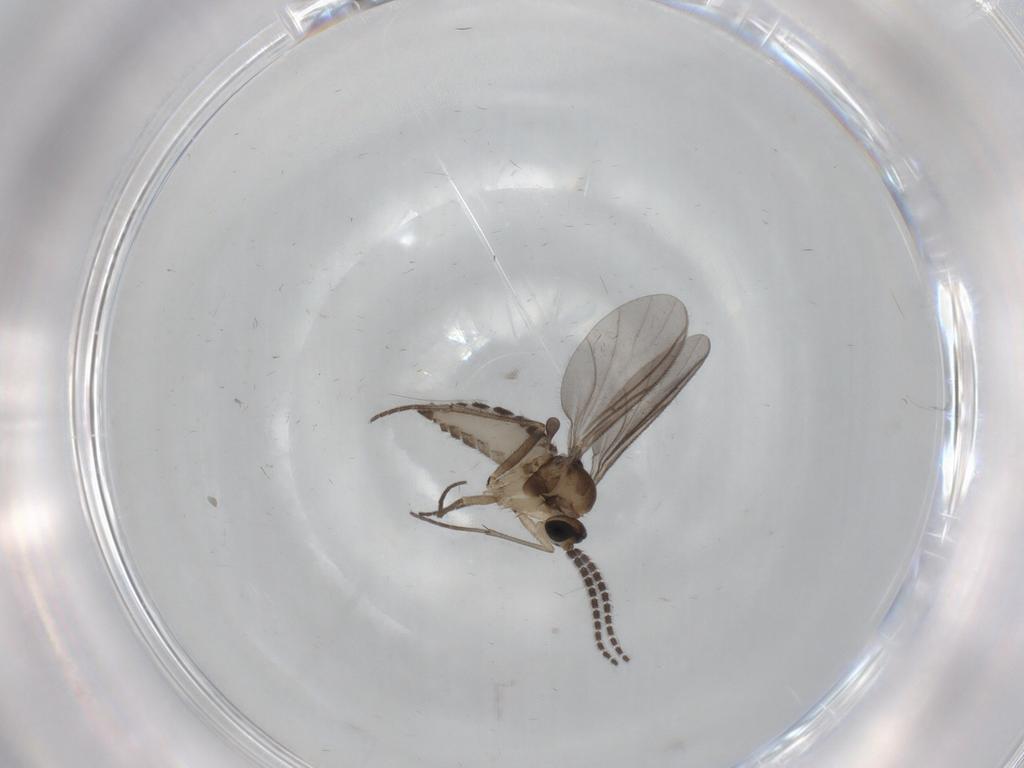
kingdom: Animalia
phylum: Arthropoda
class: Insecta
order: Diptera
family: Sciaridae
